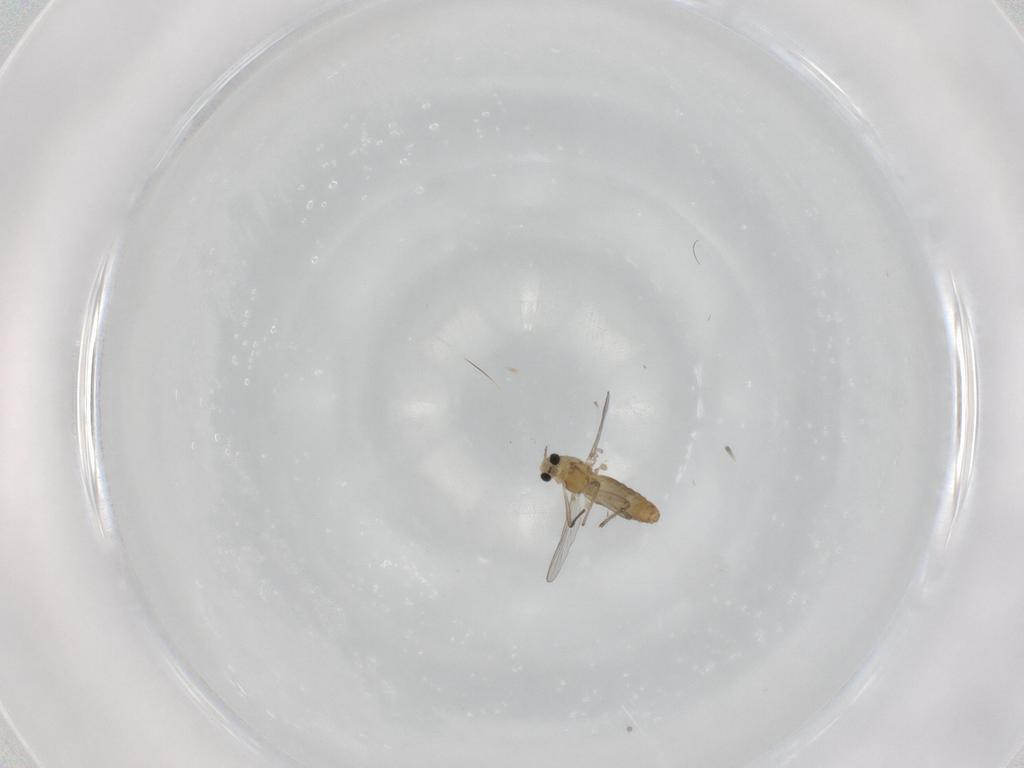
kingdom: Animalia
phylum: Arthropoda
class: Insecta
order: Diptera
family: Chironomidae
